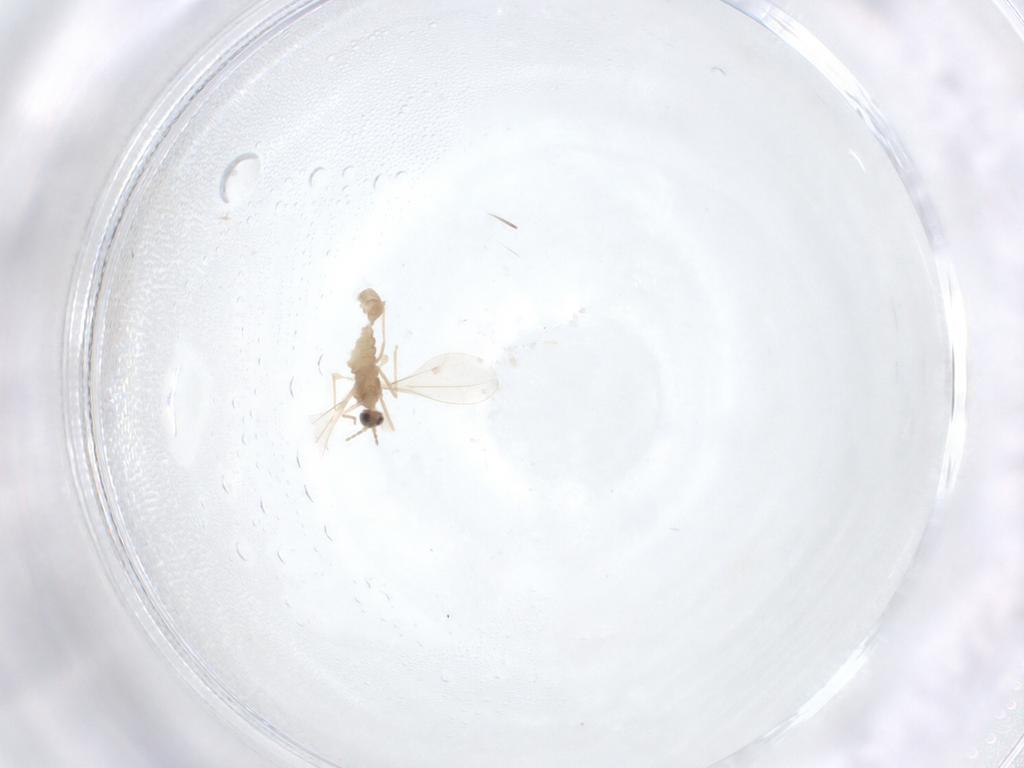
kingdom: Animalia
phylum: Arthropoda
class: Insecta
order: Diptera
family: Cecidomyiidae
